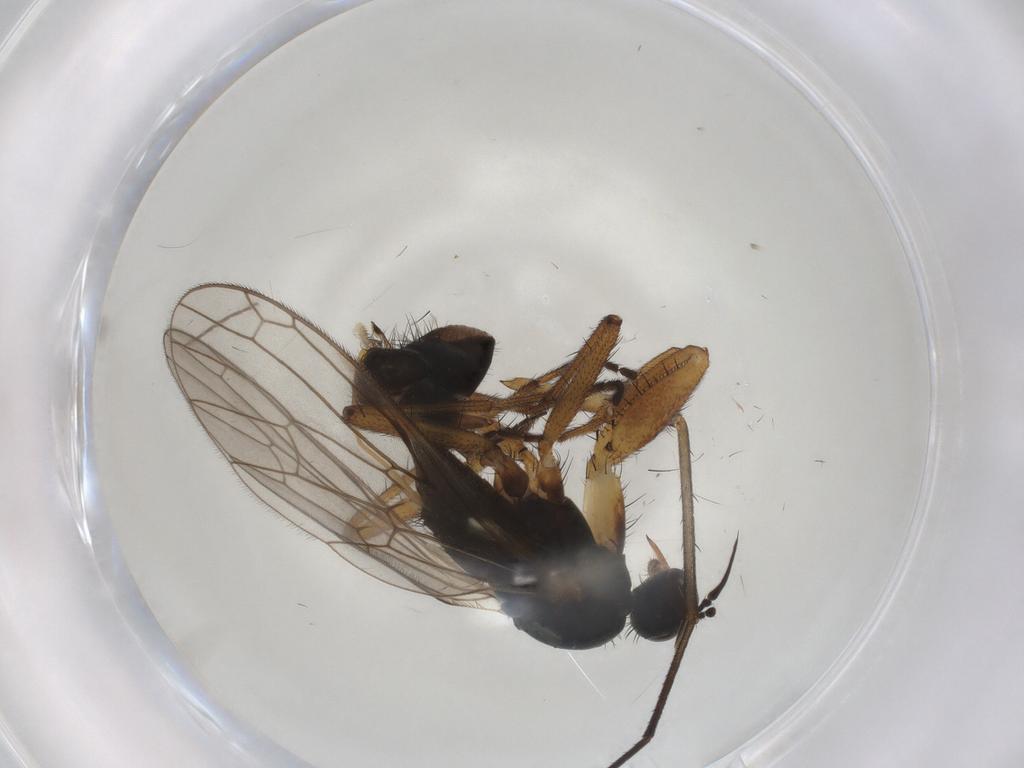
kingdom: Animalia
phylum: Arthropoda
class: Insecta
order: Diptera
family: Empididae
